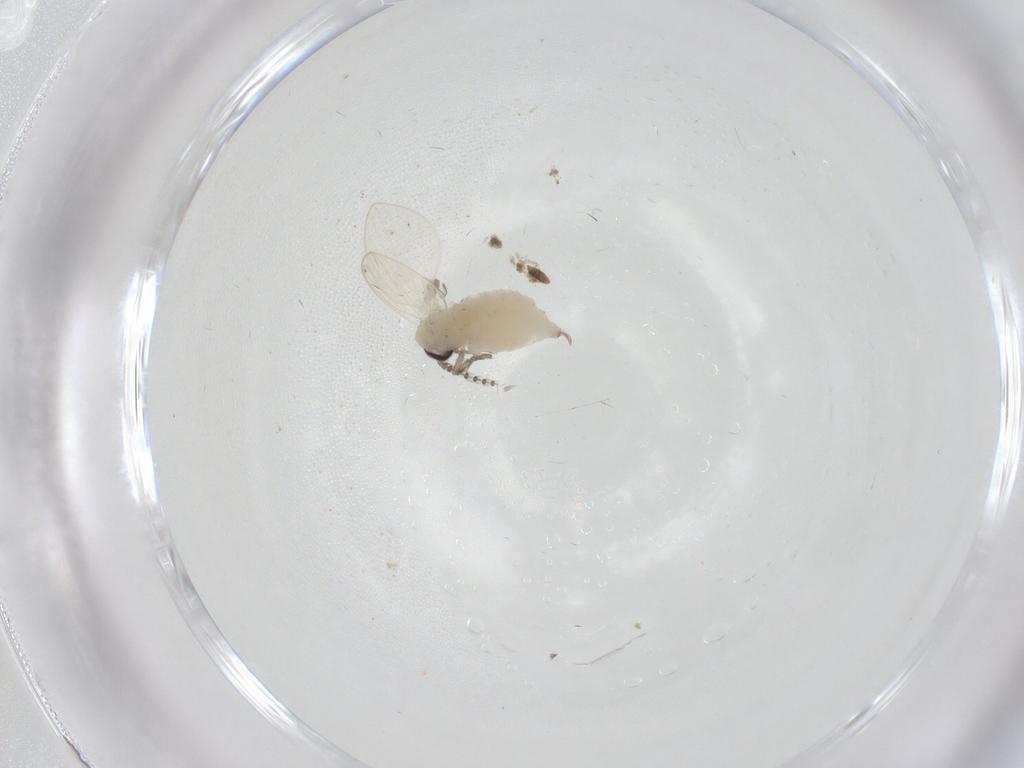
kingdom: Animalia
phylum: Arthropoda
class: Insecta
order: Diptera
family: Psychodidae
